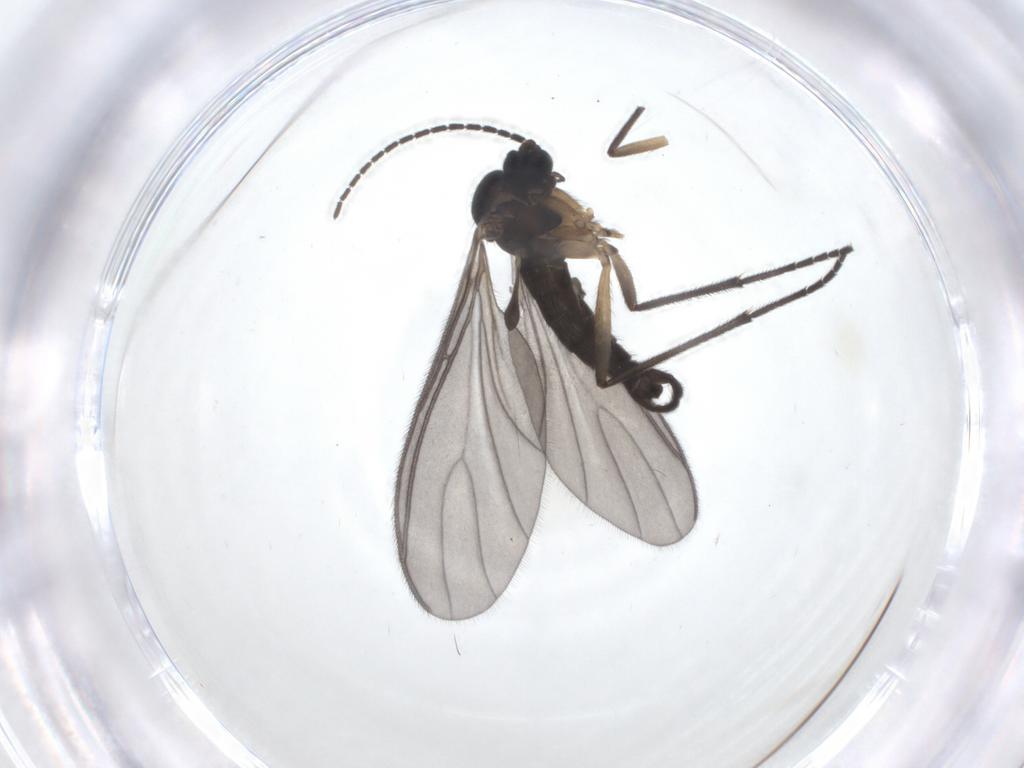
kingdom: Animalia
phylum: Arthropoda
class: Insecta
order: Diptera
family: Sciaridae
